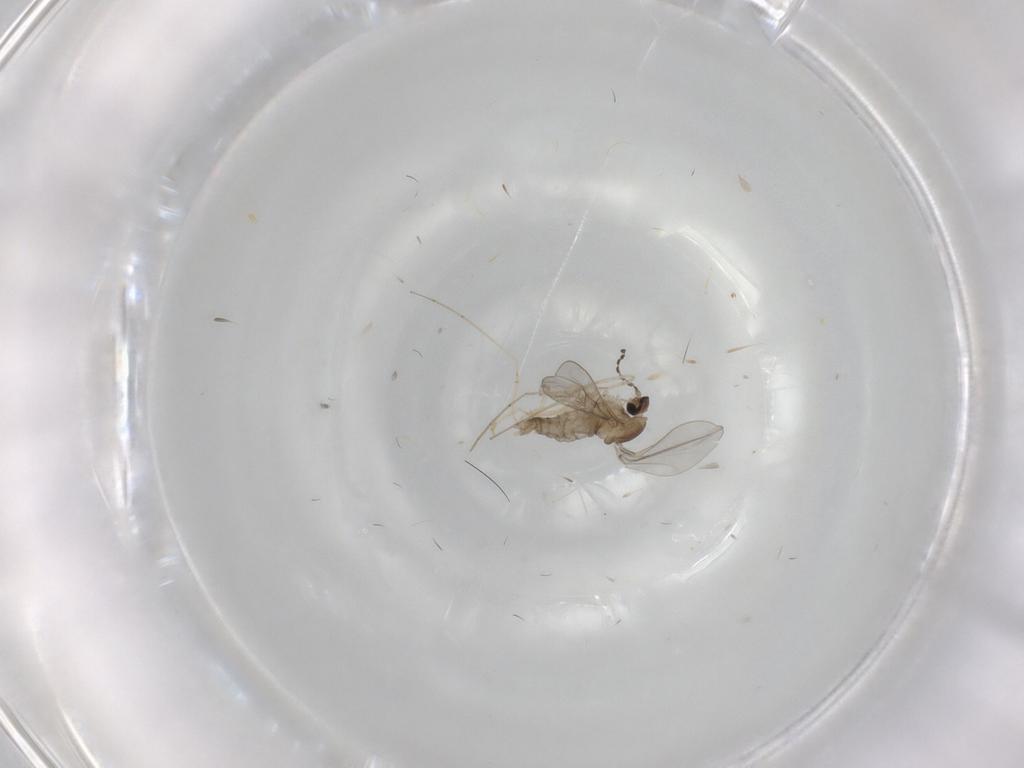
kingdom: Animalia
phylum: Arthropoda
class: Insecta
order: Diptera
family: Cecidomyiidae
